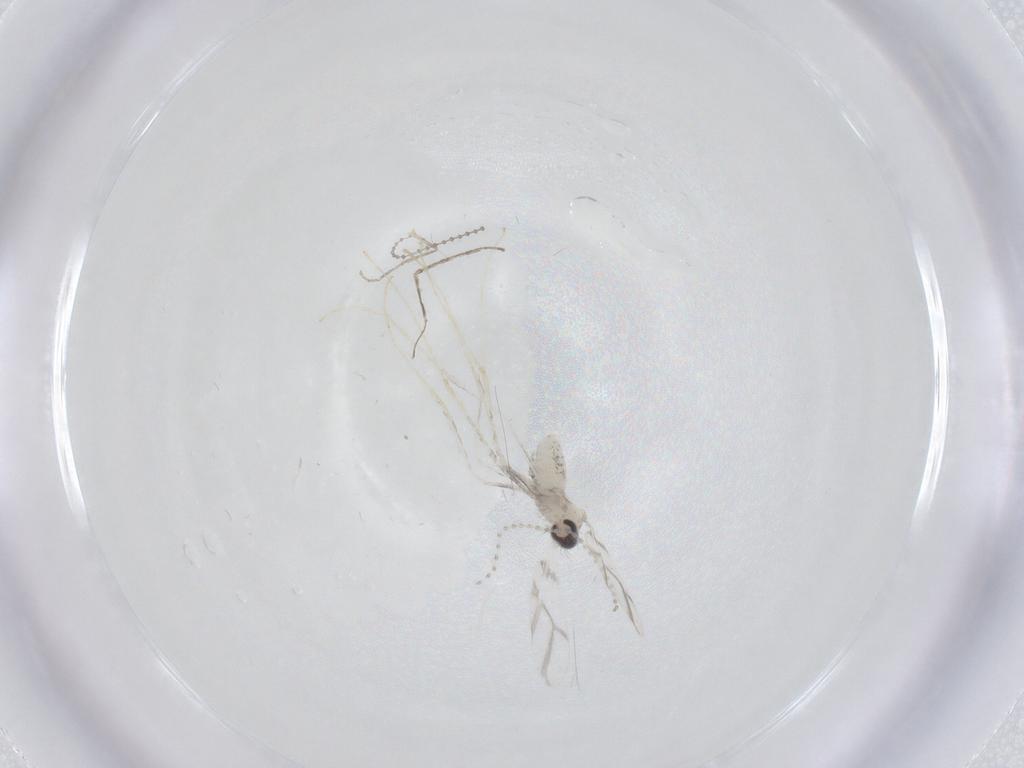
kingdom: Animalia
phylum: Arthropoda
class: Insecta
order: Diptera
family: Cecidomyiidae
